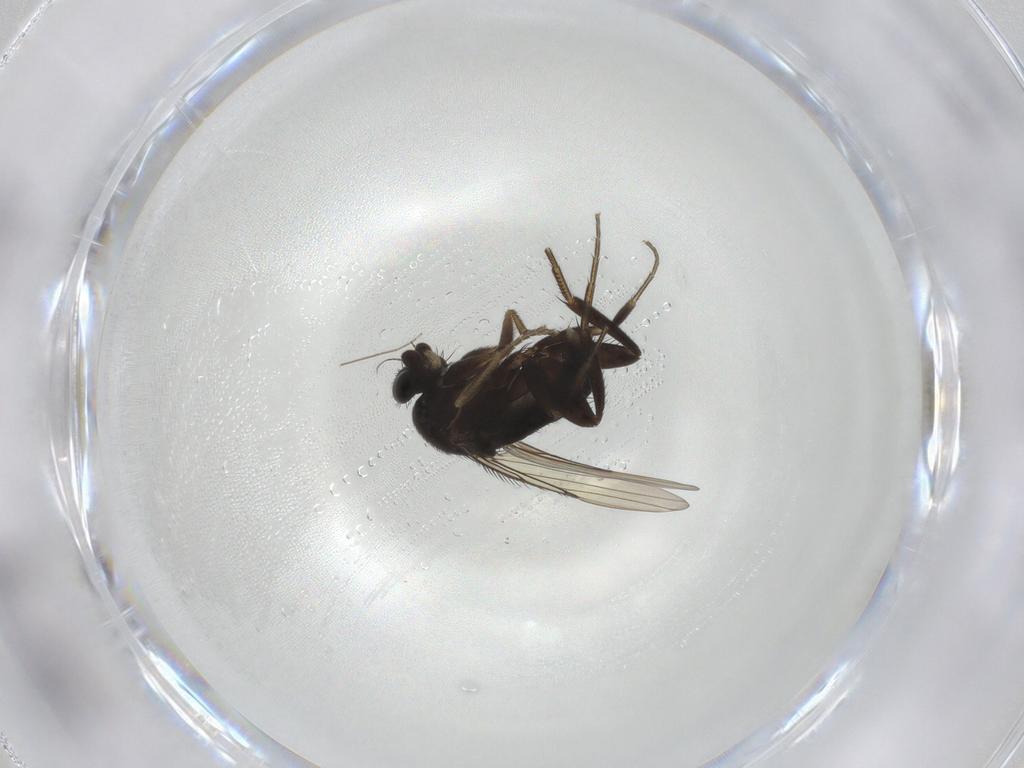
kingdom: Animalia
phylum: Arthropoda
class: Insecta
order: Diptera
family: Phoridae
